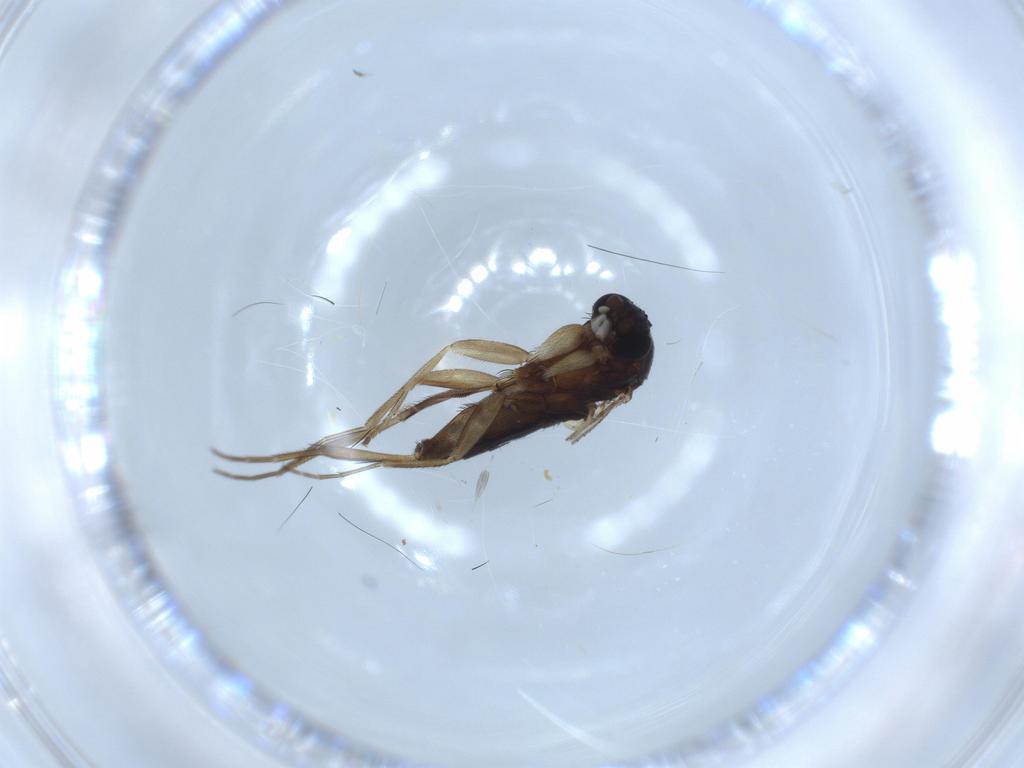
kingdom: Animalia
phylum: Arthropoda
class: Insecta
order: Diptera
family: Phoridae
